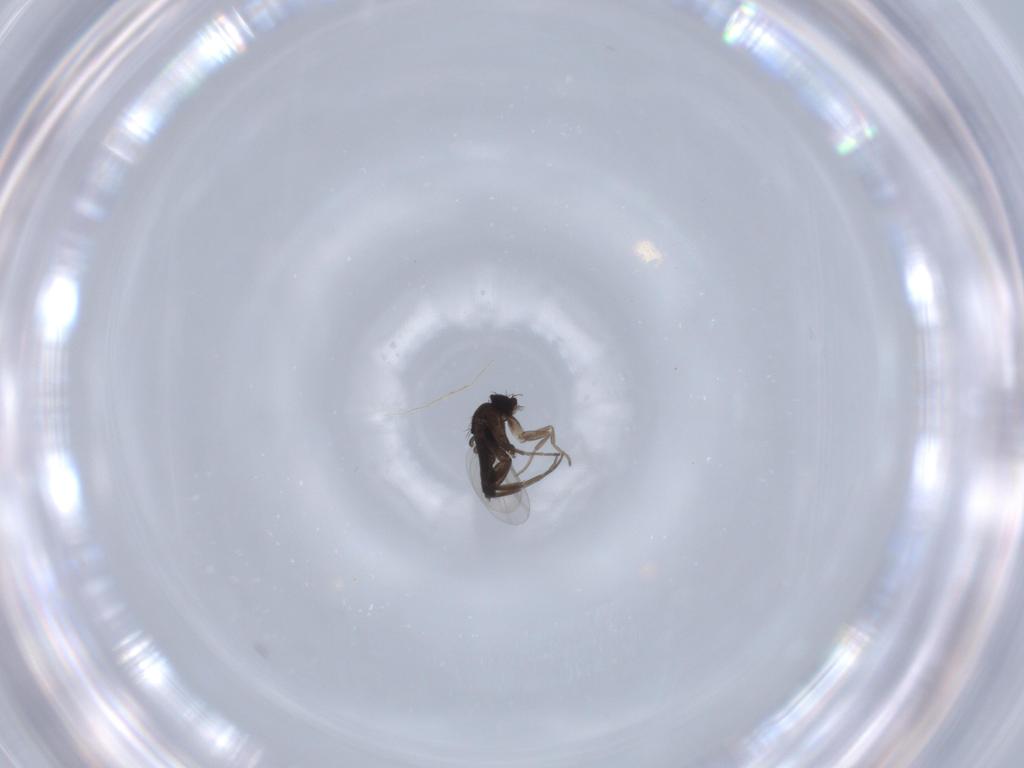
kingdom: Animalia
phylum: Arthropoda
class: Insecta
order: Diptera
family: Phoridae
